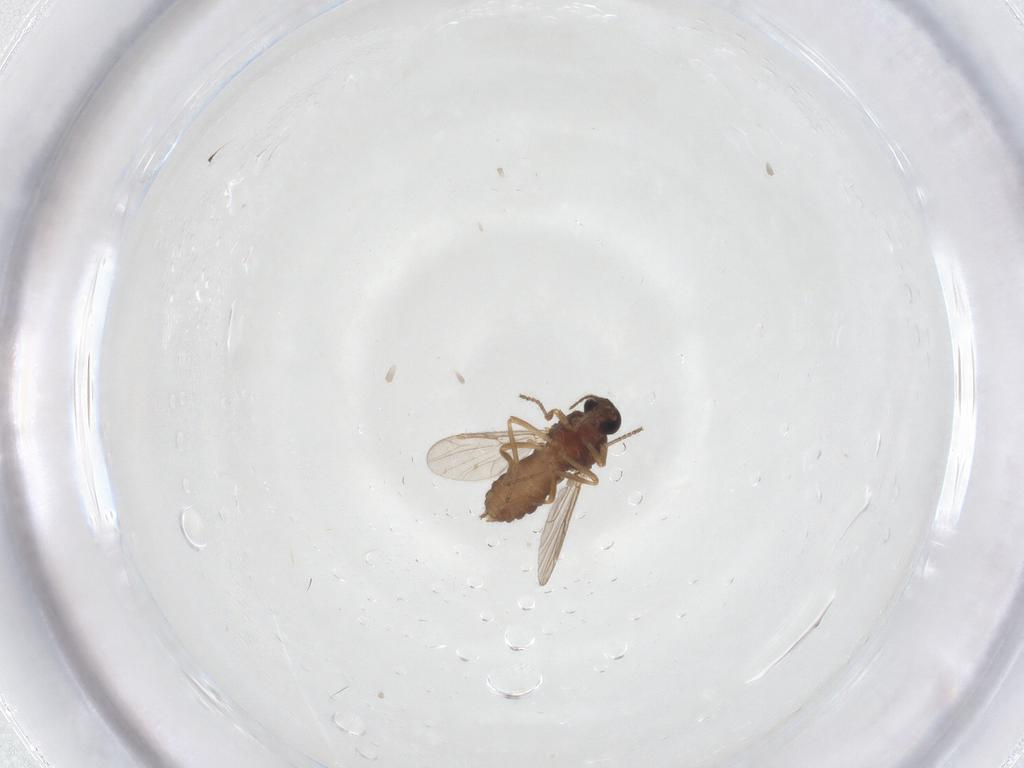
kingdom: Animalia
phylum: Arthropoda
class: Insecta
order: Diptera
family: Ceratopogonidae
